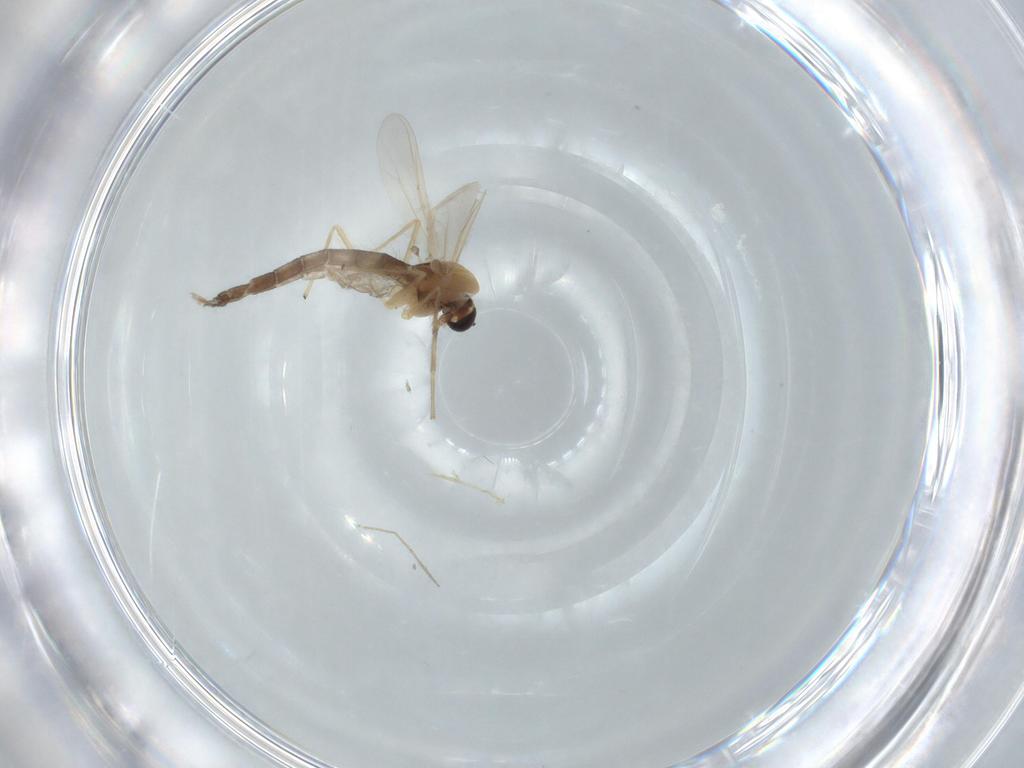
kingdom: Animalia
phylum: Arthropoda
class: Insecta
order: Diptera
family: Chironomidae
